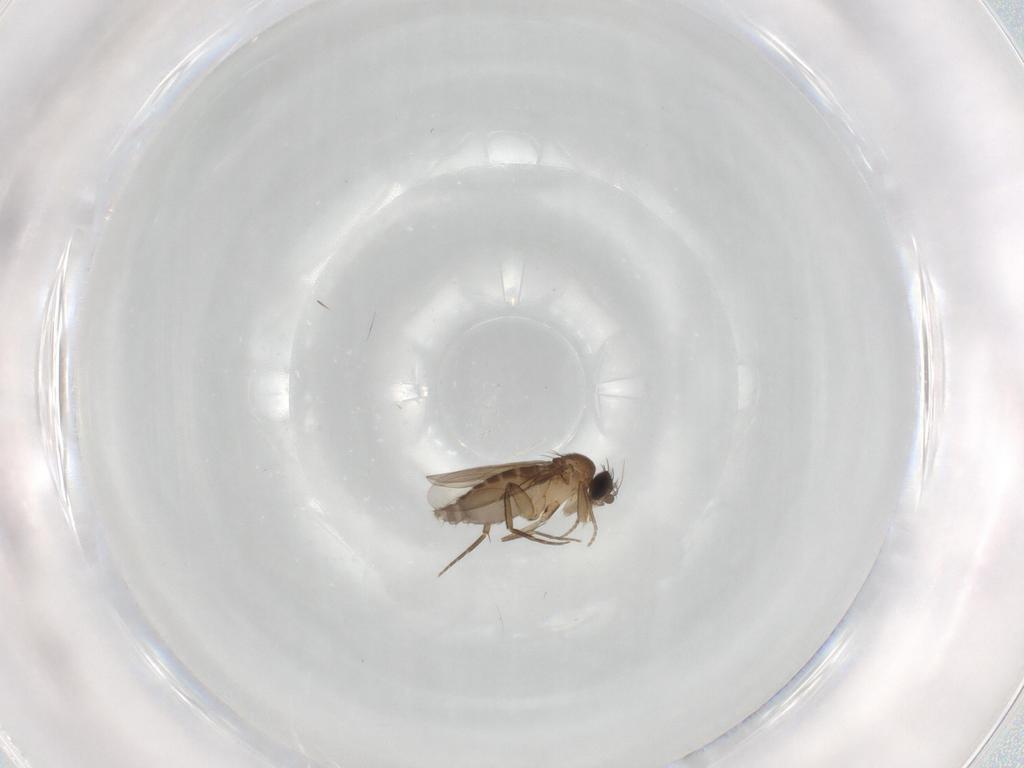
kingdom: Animalia
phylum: Arthropoda
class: Insecta
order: Diptera
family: Phoridae
